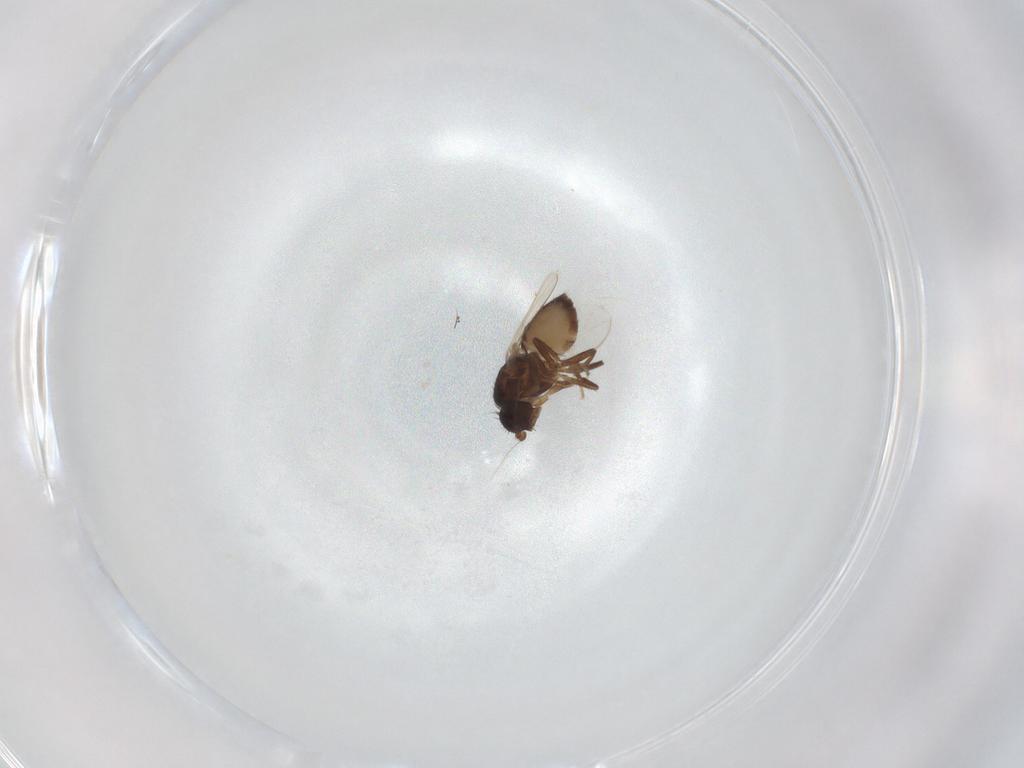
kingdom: Animalia
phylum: Arthropoda
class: Insecta
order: Diptera
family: Sphaeroceridae
